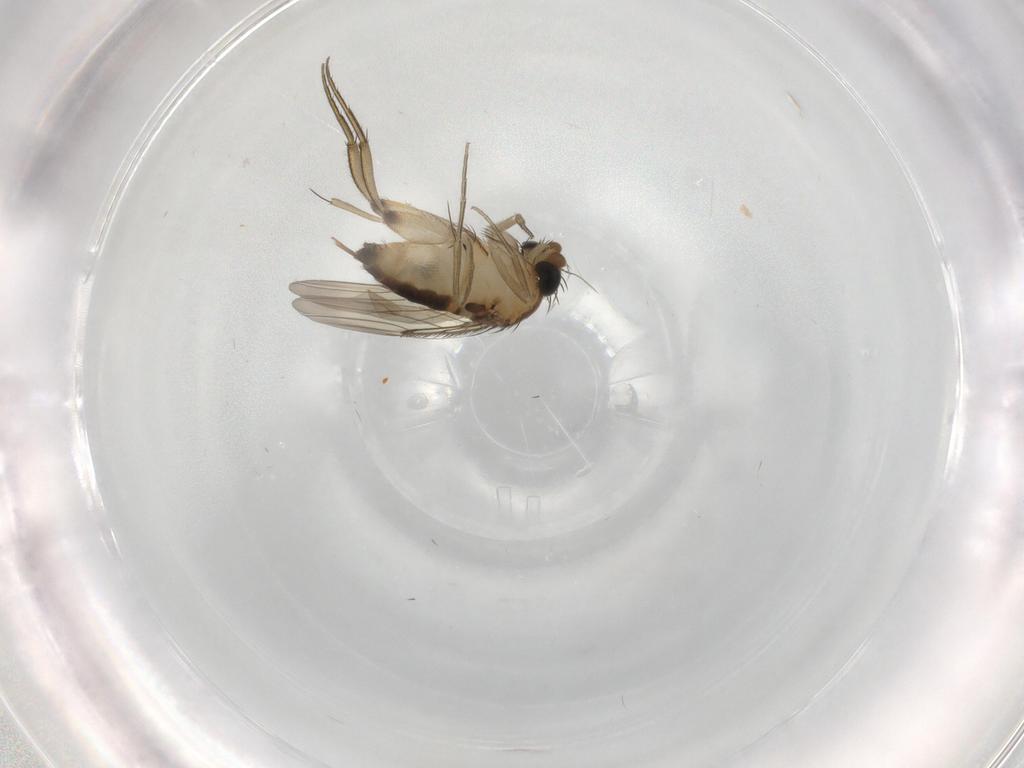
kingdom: Animalia
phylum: Arthropoda
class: Insecta
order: Diptera
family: Phoridae
